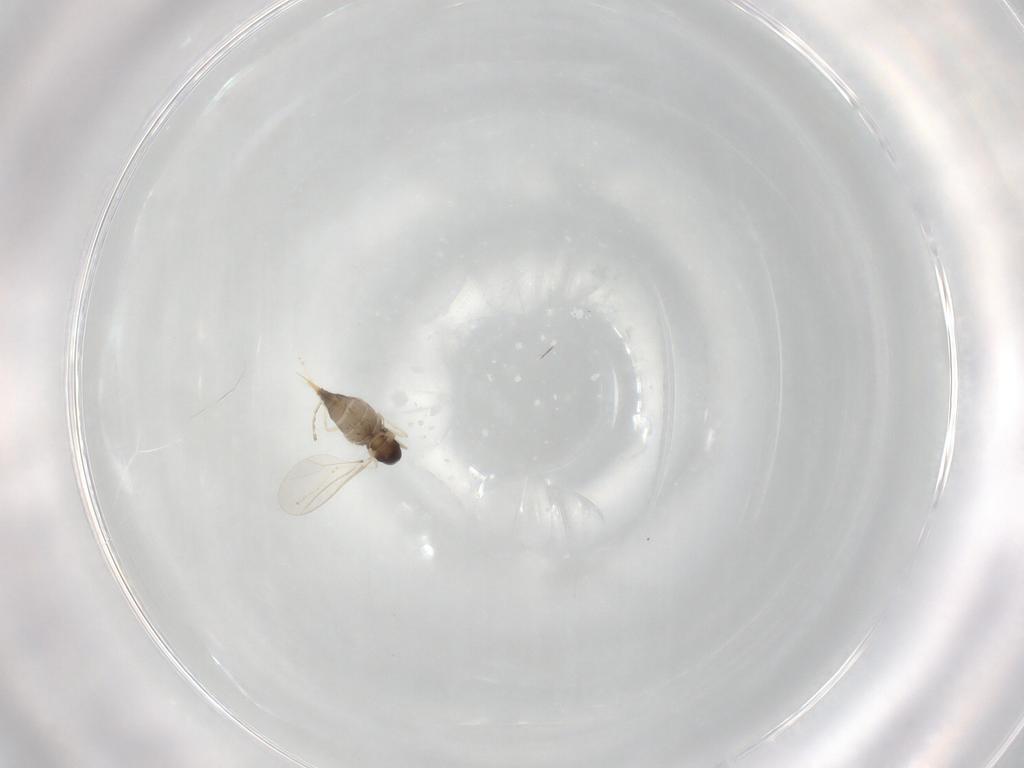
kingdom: Animalia
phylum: Arthropoda
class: Insecta
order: Diptera
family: Cecidomyiidae
